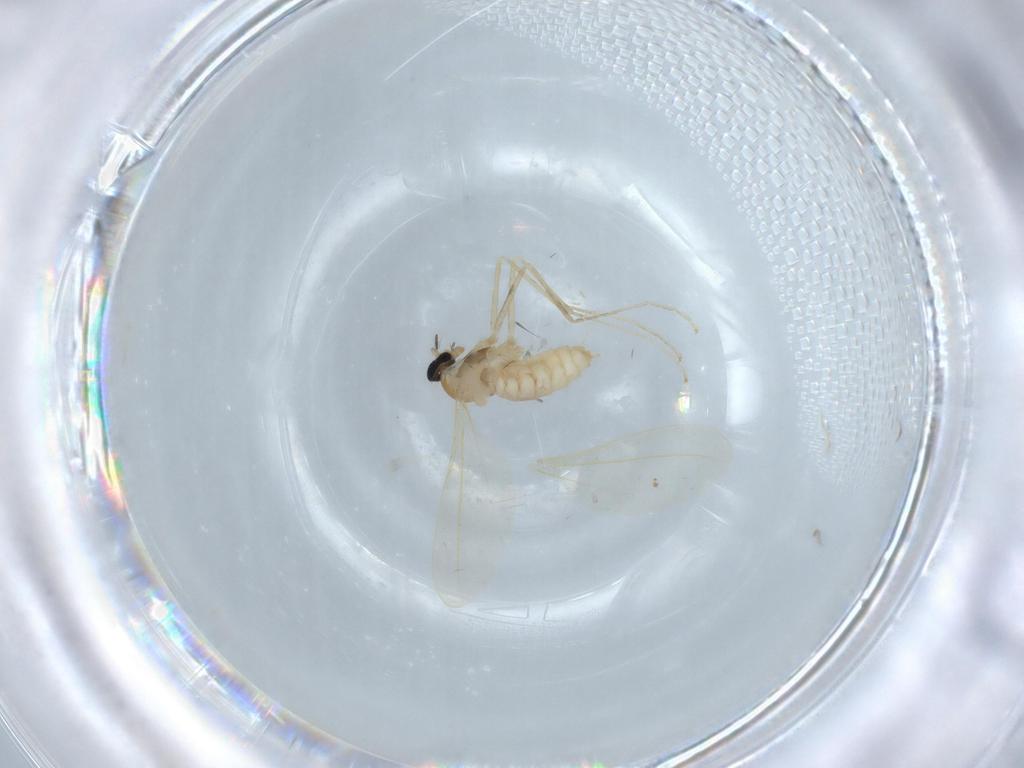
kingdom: Animalia
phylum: Arthropoda
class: Insecta
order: Diptera
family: Cecidomyiidae
